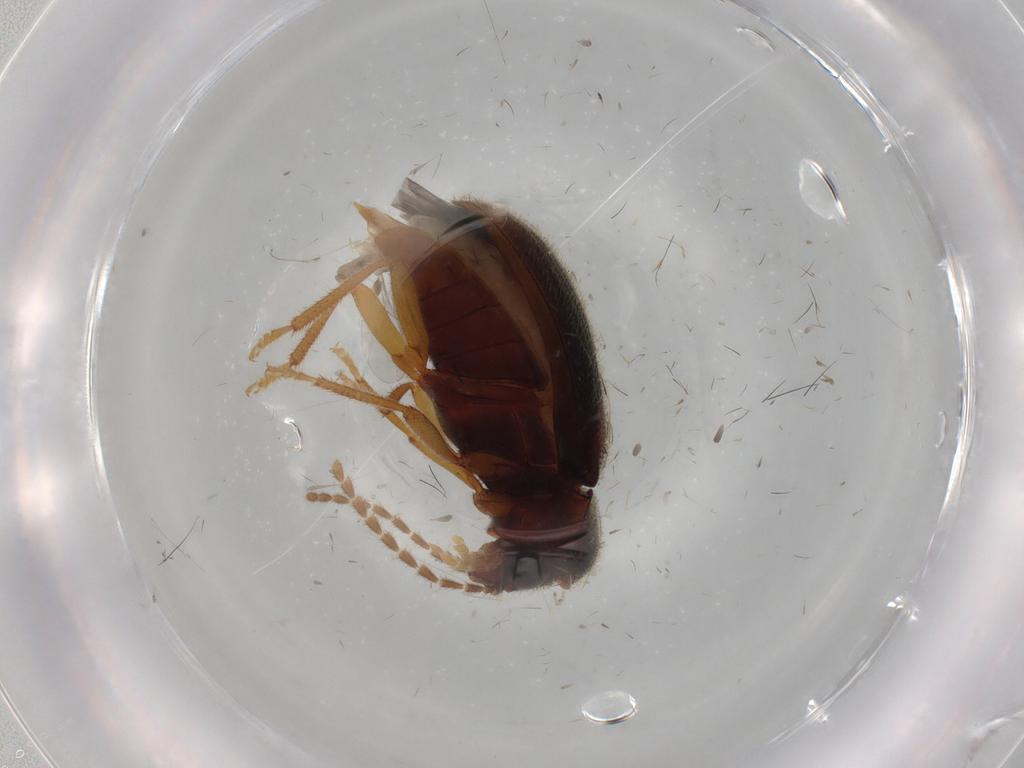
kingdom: Animalia
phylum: Arthropoda
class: Insecta
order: Coleoptera
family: Ptilodactylidae
